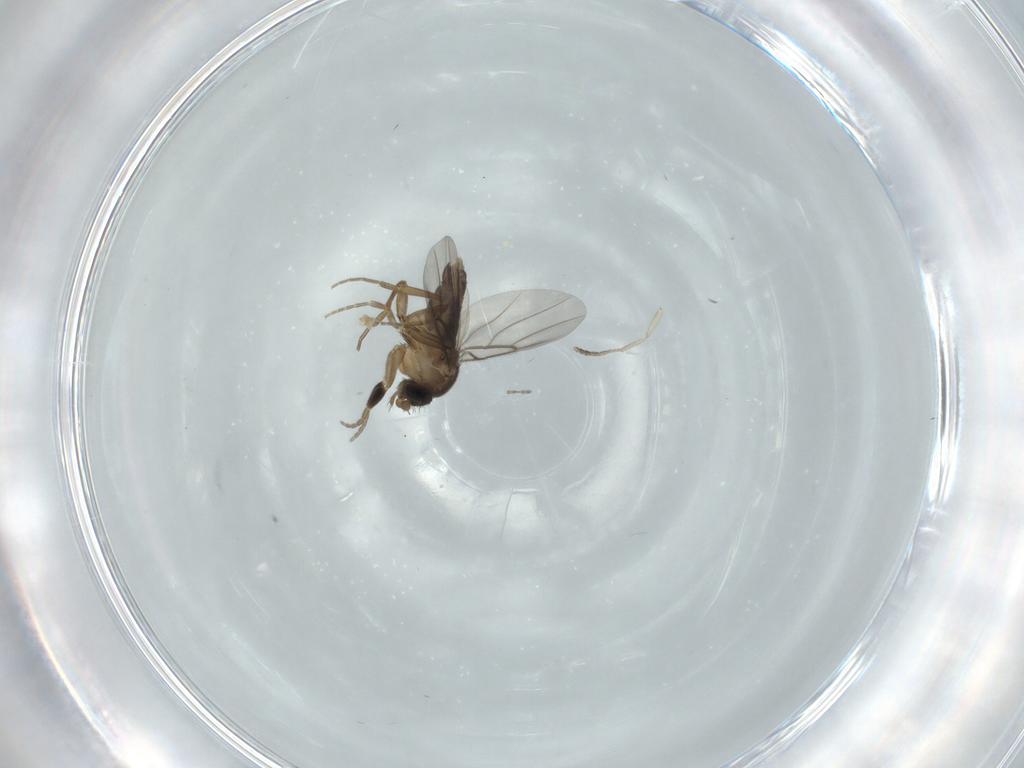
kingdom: Animalia
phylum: Arthropoda
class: Insecta
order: Diptera
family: Phoridae
